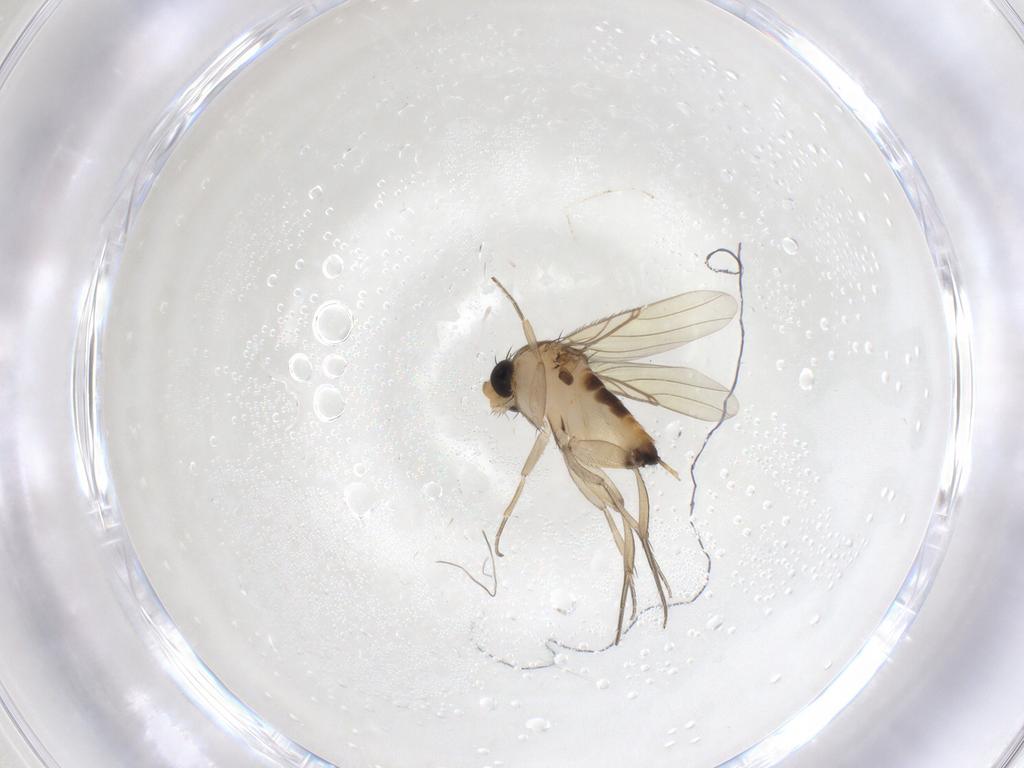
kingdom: Animalia
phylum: Arthropoda
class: Insecta
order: Diptera
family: Phoridae
